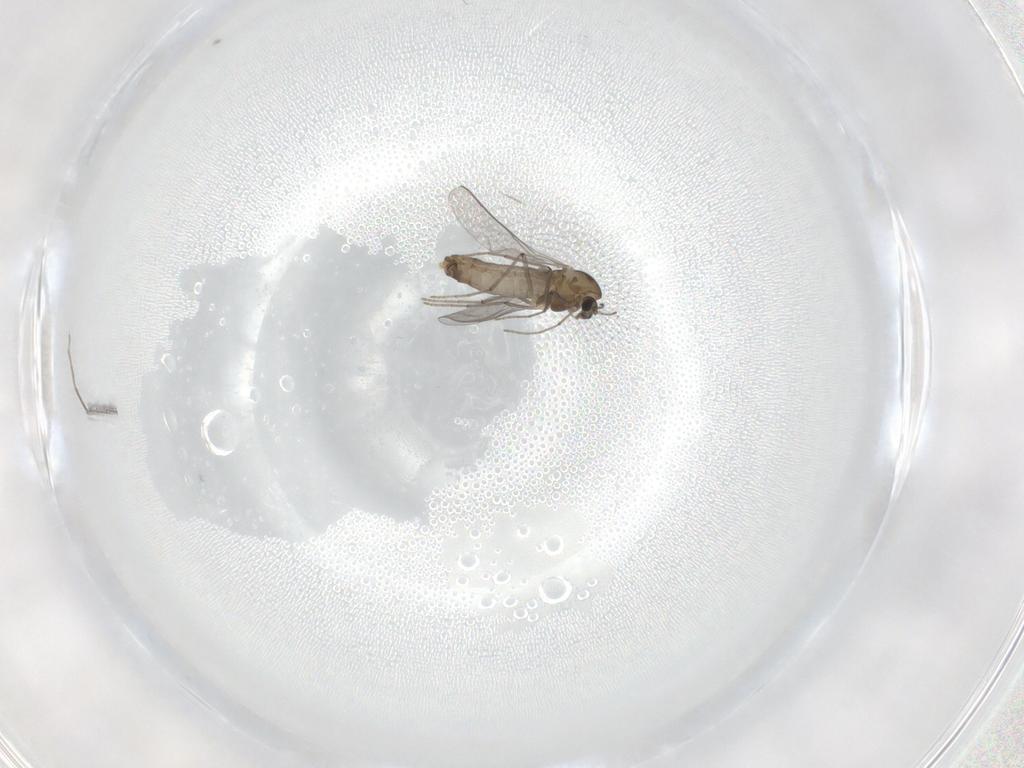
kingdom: Animalia
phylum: Arthropoda
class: Insecta
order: Diptera
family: Chironomidae
